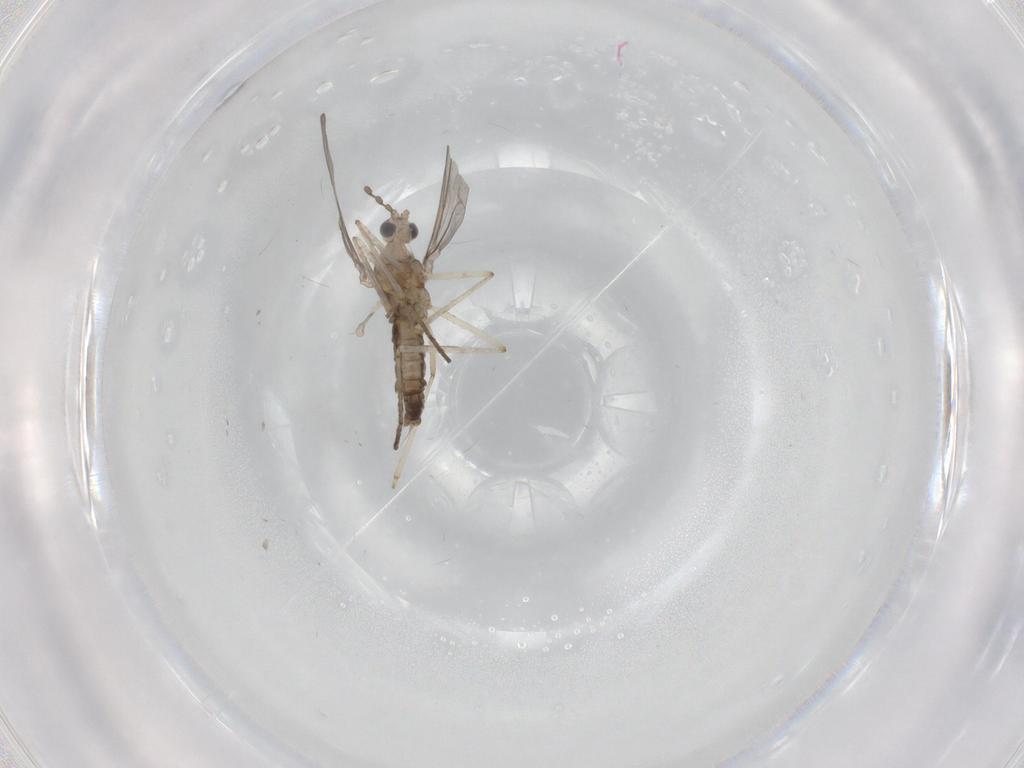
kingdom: Animalia
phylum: Arthropoda
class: Insecta
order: Diptera
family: Cecidomyiidae
